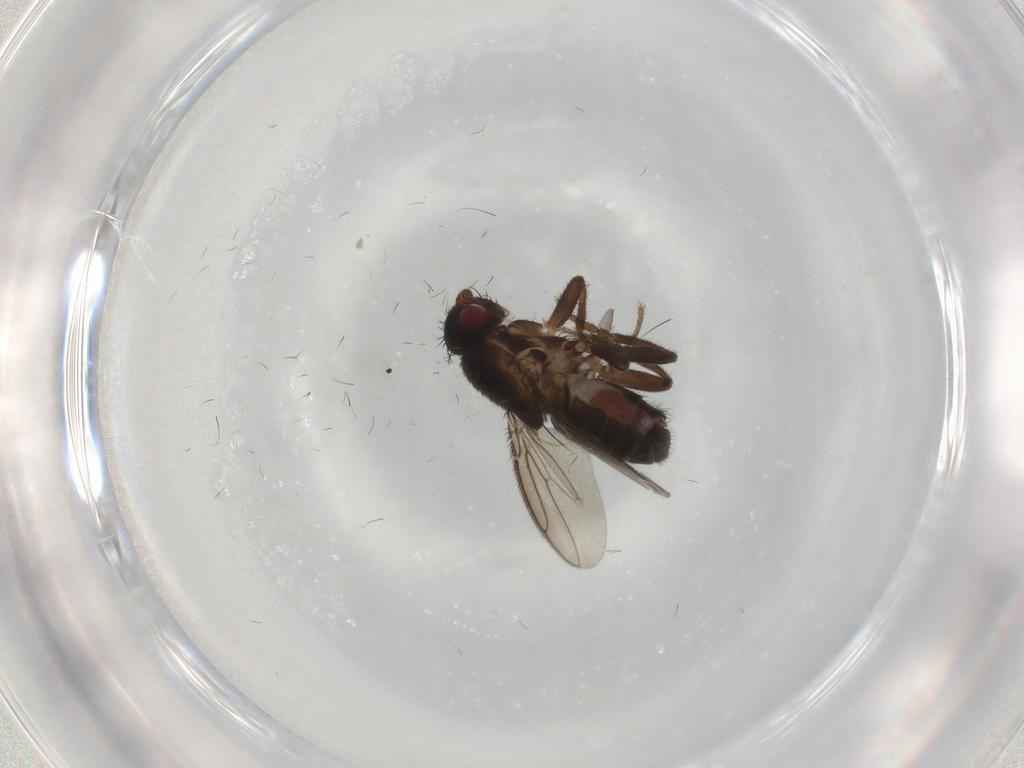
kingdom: Animalia
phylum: Arthropoda
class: Insecta
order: Diptera
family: Sphaeroceridae
